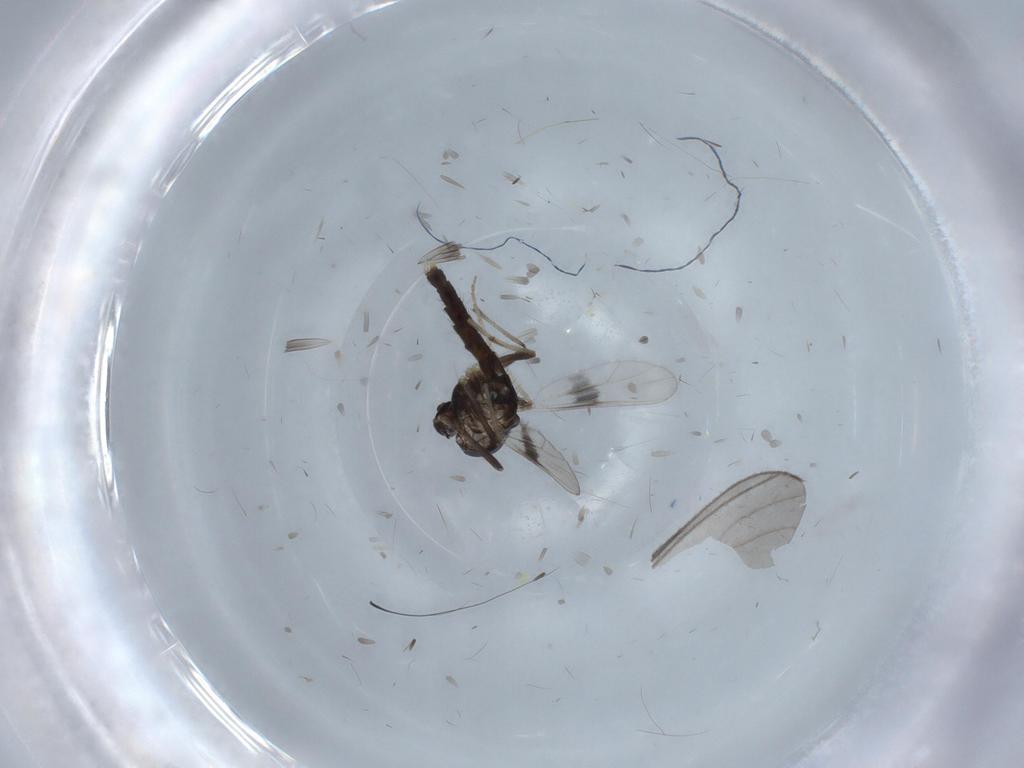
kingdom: Animalia
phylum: Arthropoda
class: Insecta
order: Diptera
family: Chironomidae
